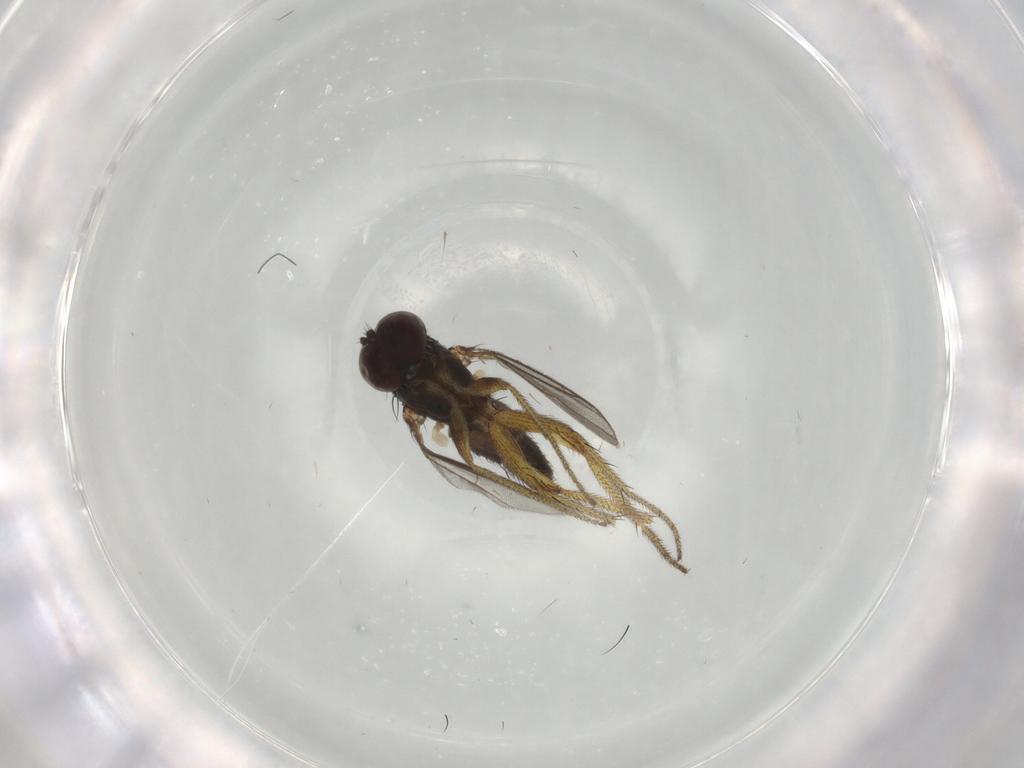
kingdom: Animalia
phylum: Arthropoda
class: Insecta
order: Diptera
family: Dolichopodidae
